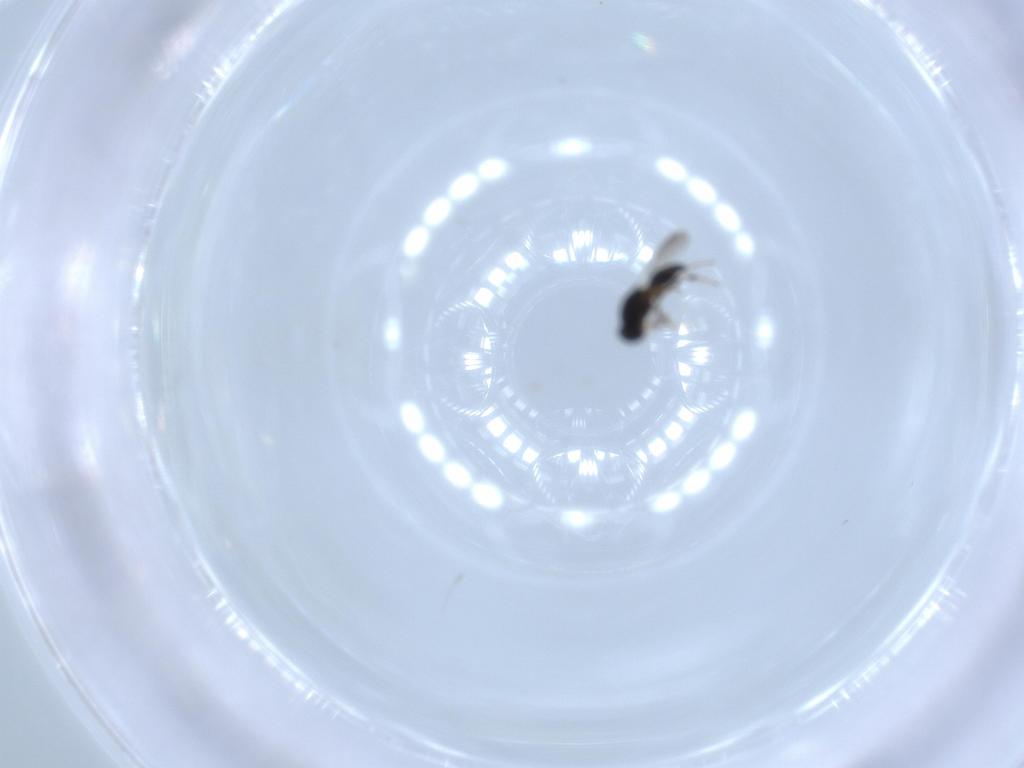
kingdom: Animalia
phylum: Arthropoda
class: Insecta
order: Hymenoptera
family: Platygastridae
